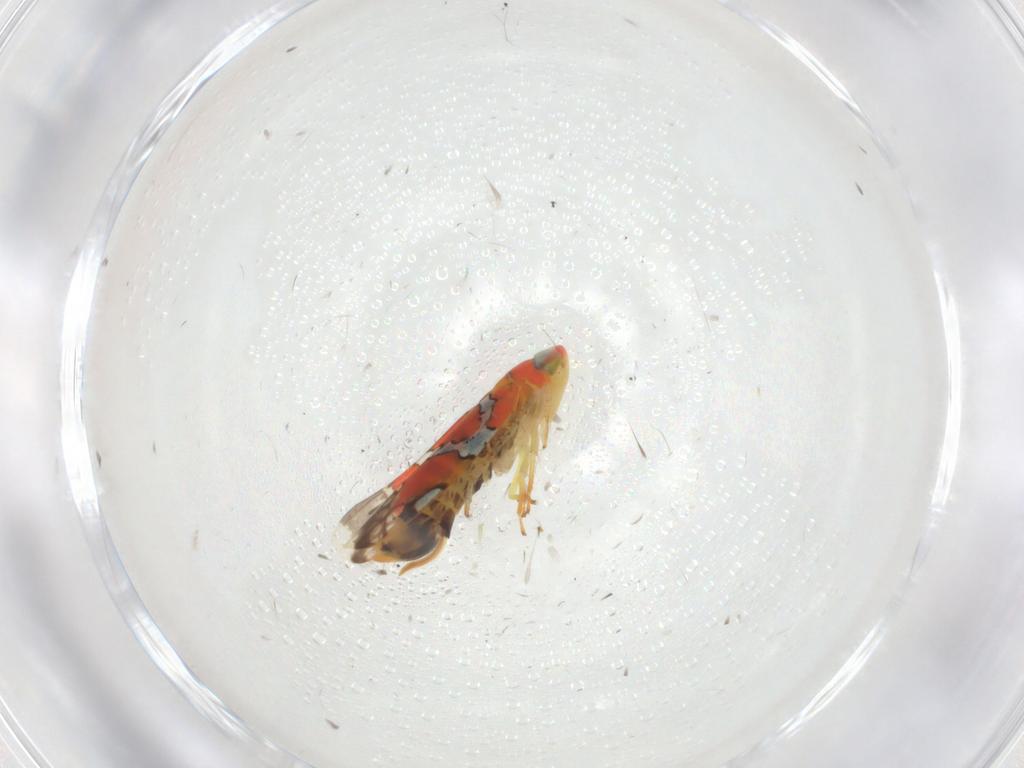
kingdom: Animalia
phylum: Arthropoda
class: Insecta
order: Hemiptera
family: Cicadellidae
